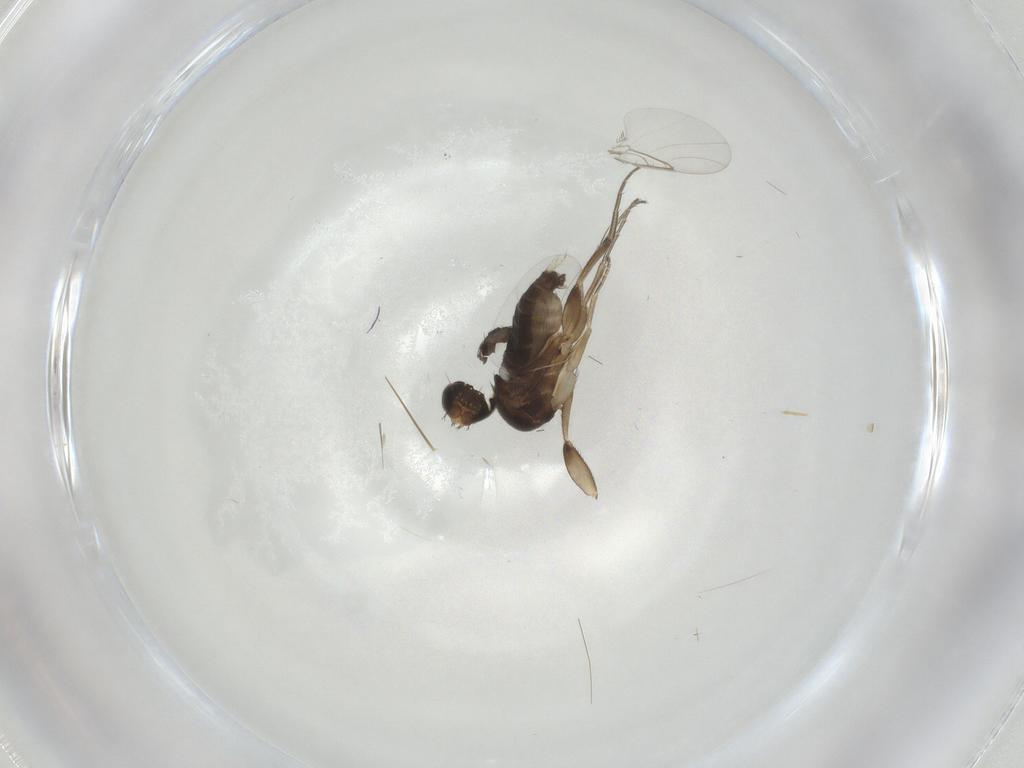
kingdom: Animalia
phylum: Arthropoda
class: Insecta
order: Diptera
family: Phoridae
